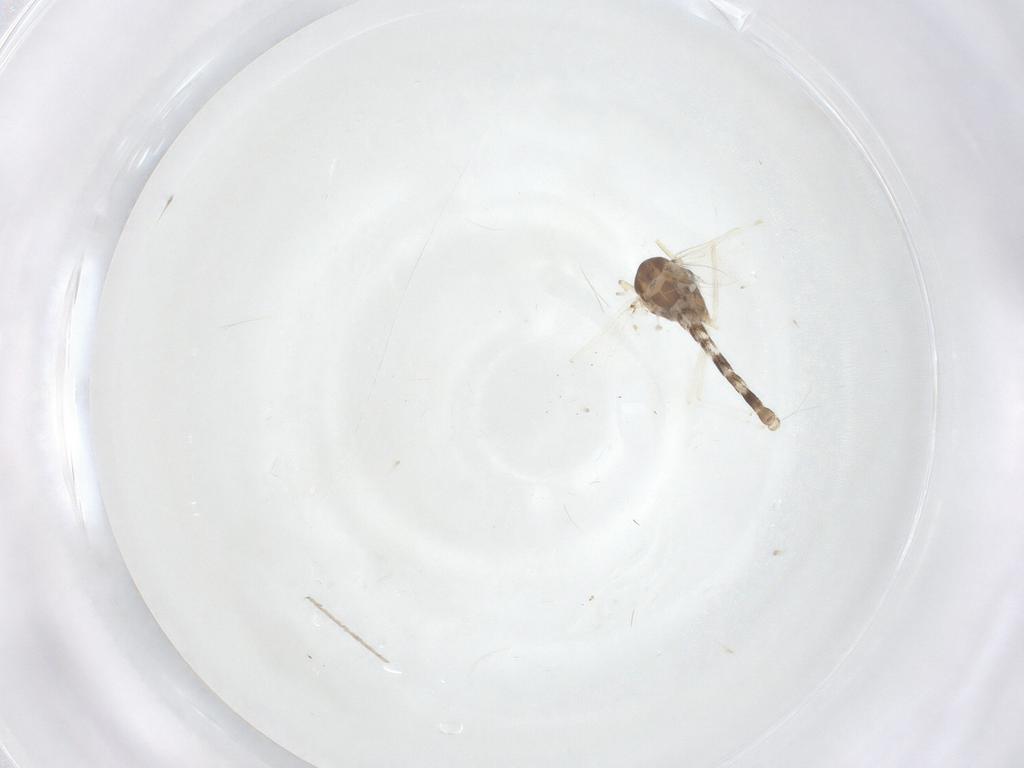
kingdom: Animalia
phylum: Arthropoda
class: Insecta
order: Diptera
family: Chironomidae
